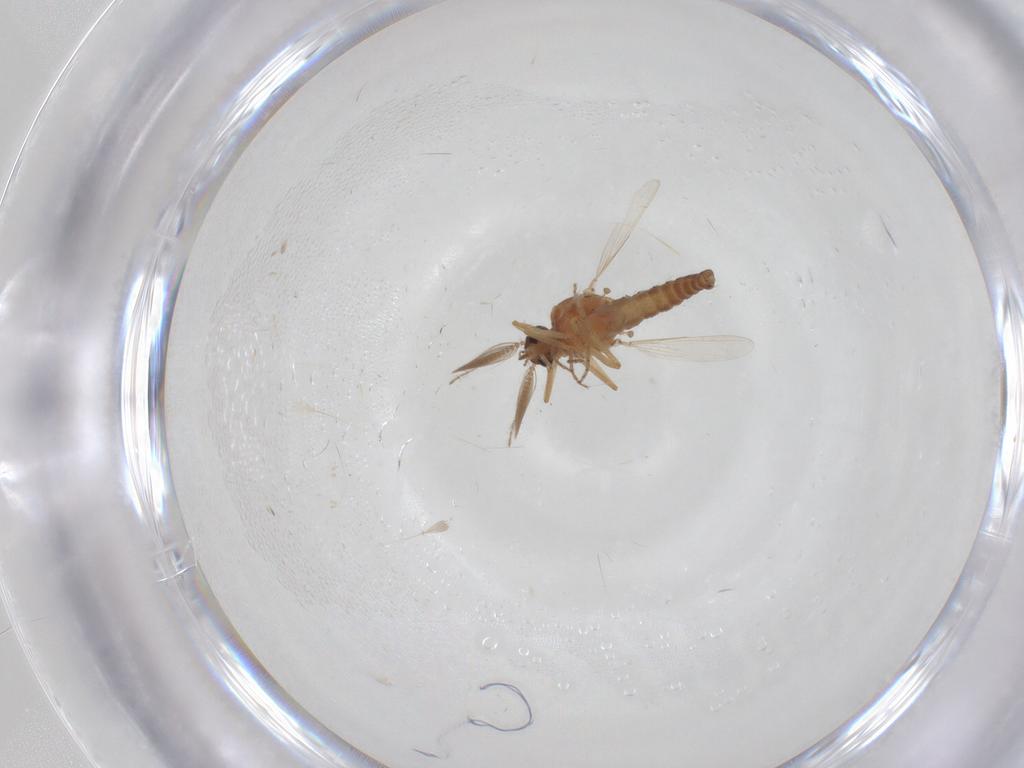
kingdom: Animalia
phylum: Arthropoda
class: Insecta
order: Diptera
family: Ceratopogonidae
